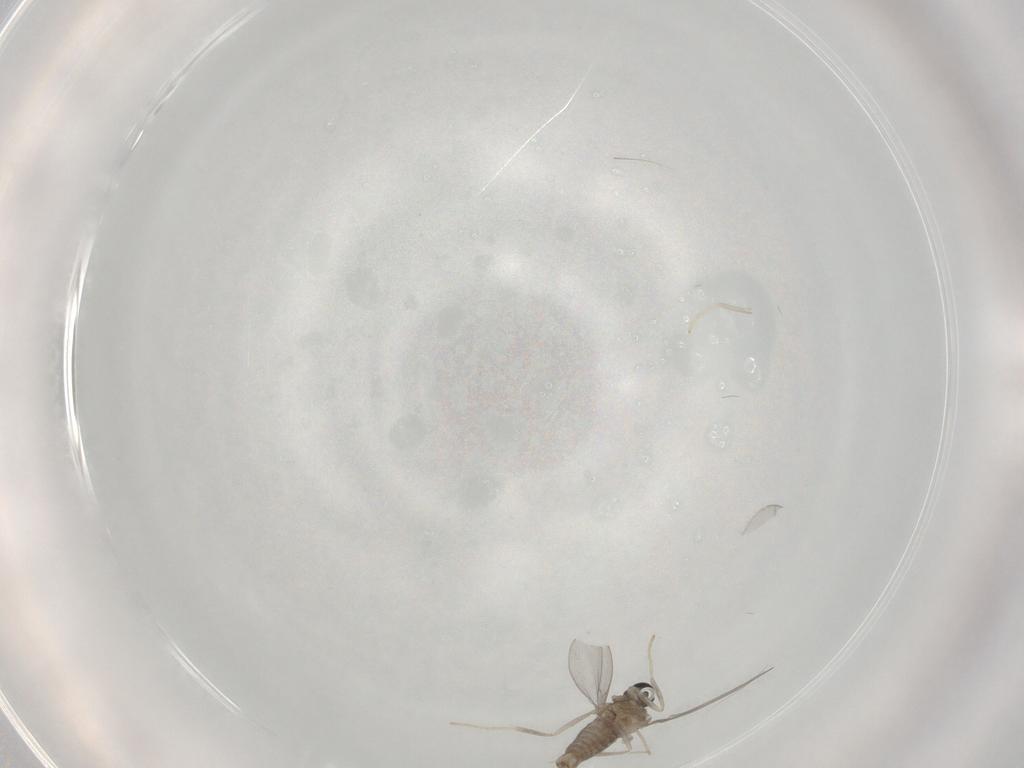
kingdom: Animalia
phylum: Arthropoda
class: Insecta
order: Diptera
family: Cecidomyiidae
